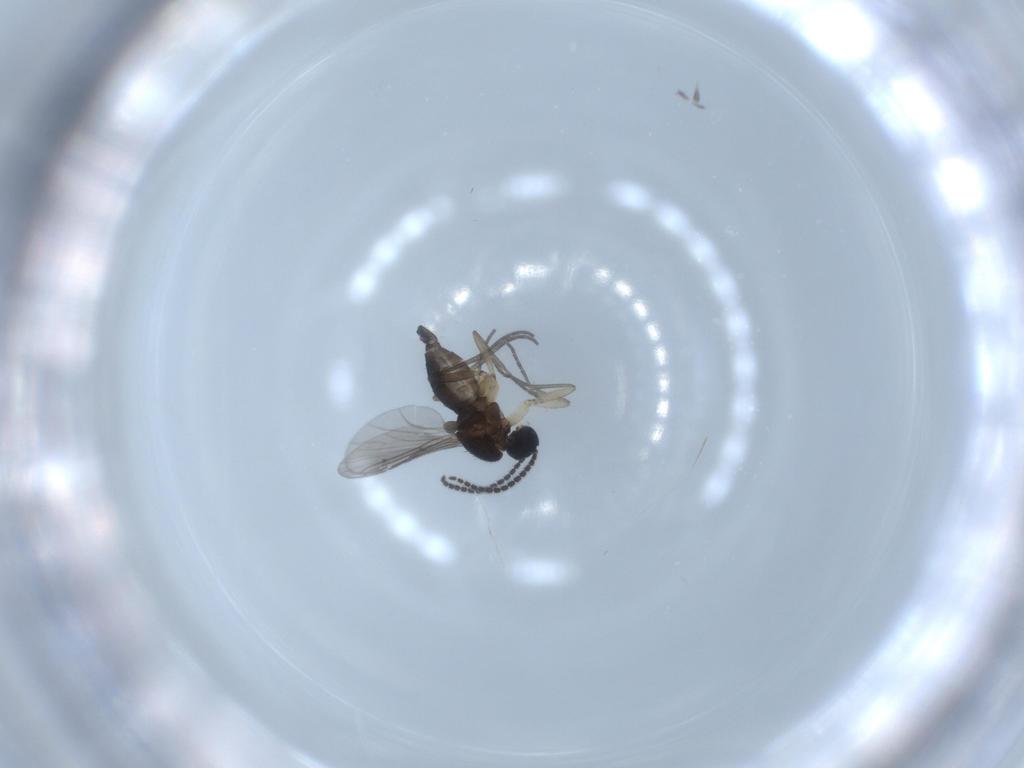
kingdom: Animalia
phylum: Arthropoda
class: Insecta
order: Diptera
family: Sciaridae
